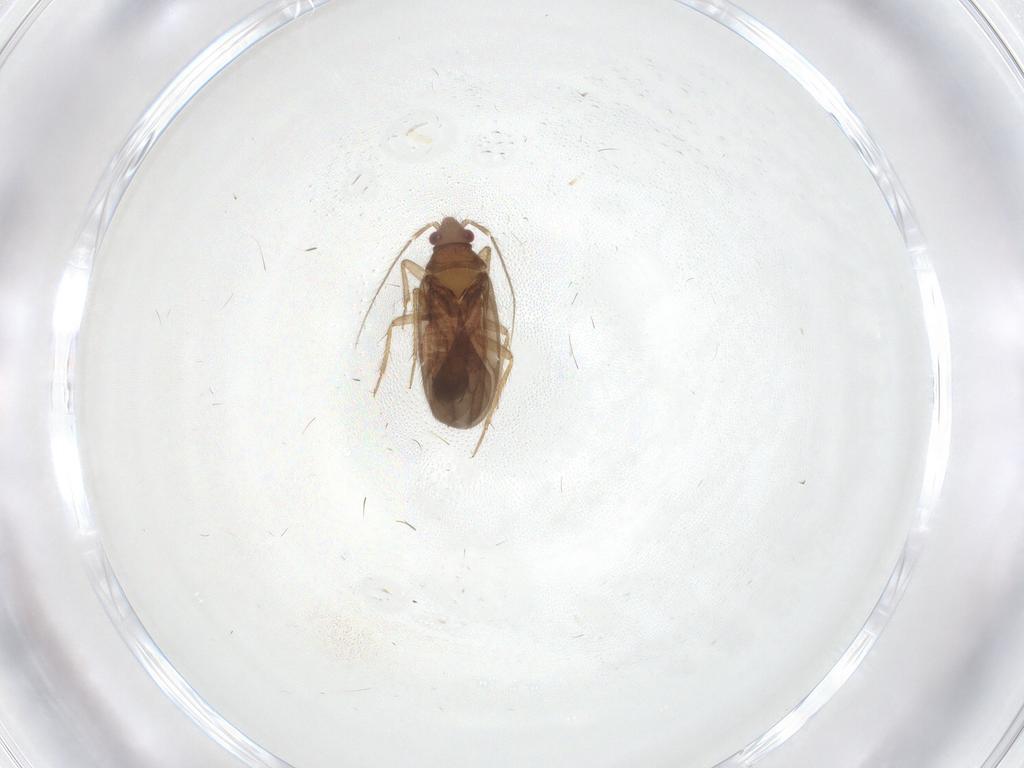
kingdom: Animalia
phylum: Arthropoda
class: Insecta
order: Hemiptera
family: Ceratocombidae
